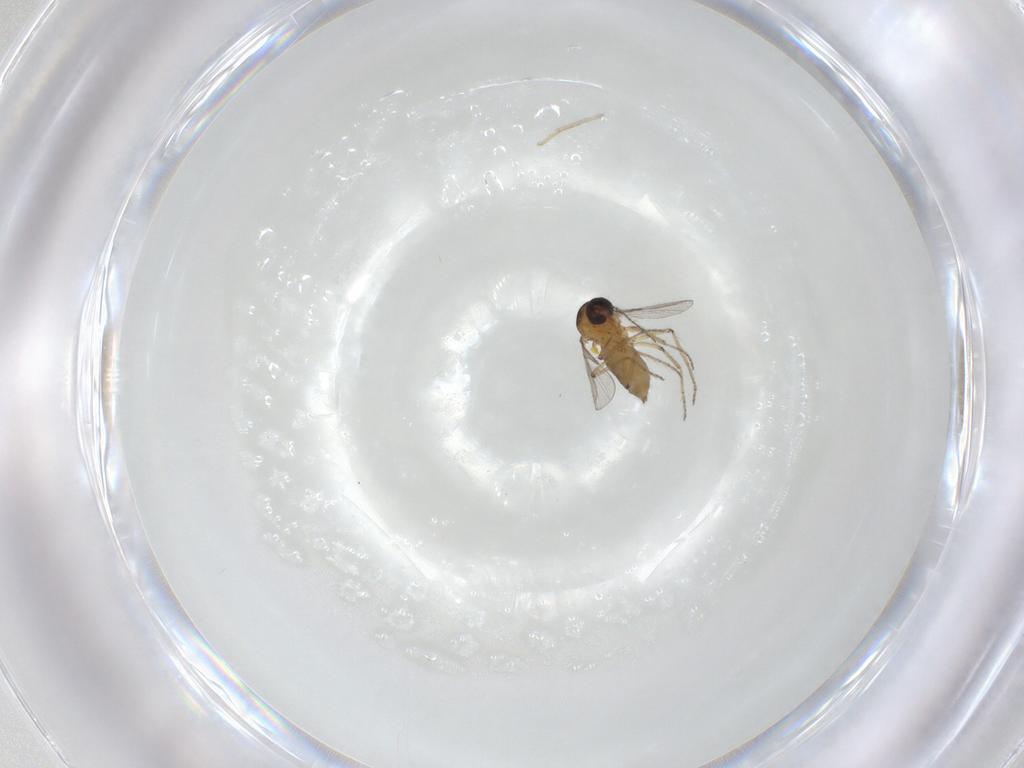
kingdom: Animalia
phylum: Arthropoda
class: Insecta
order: Diptera
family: Ceratopogonidae
